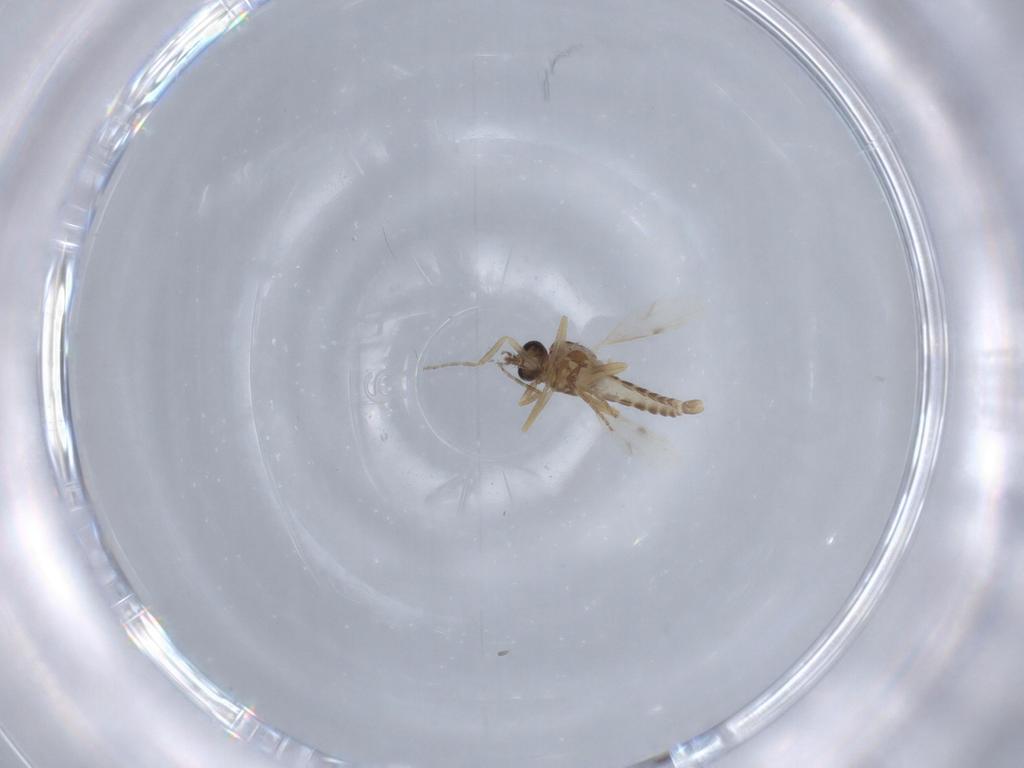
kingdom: Animalia
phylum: Arthropoda
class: Insecta
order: Diptera
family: Ceratopogonidae
